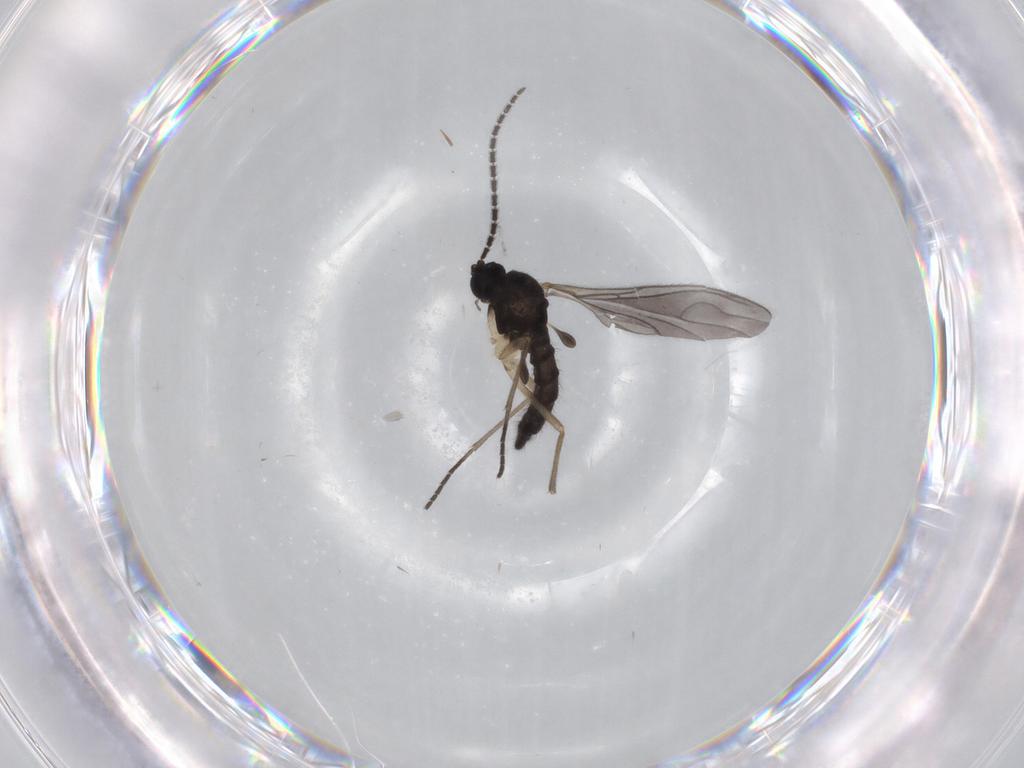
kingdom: Animalia
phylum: Arthropoda
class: Insecta
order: Diptera
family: Sciaridae
